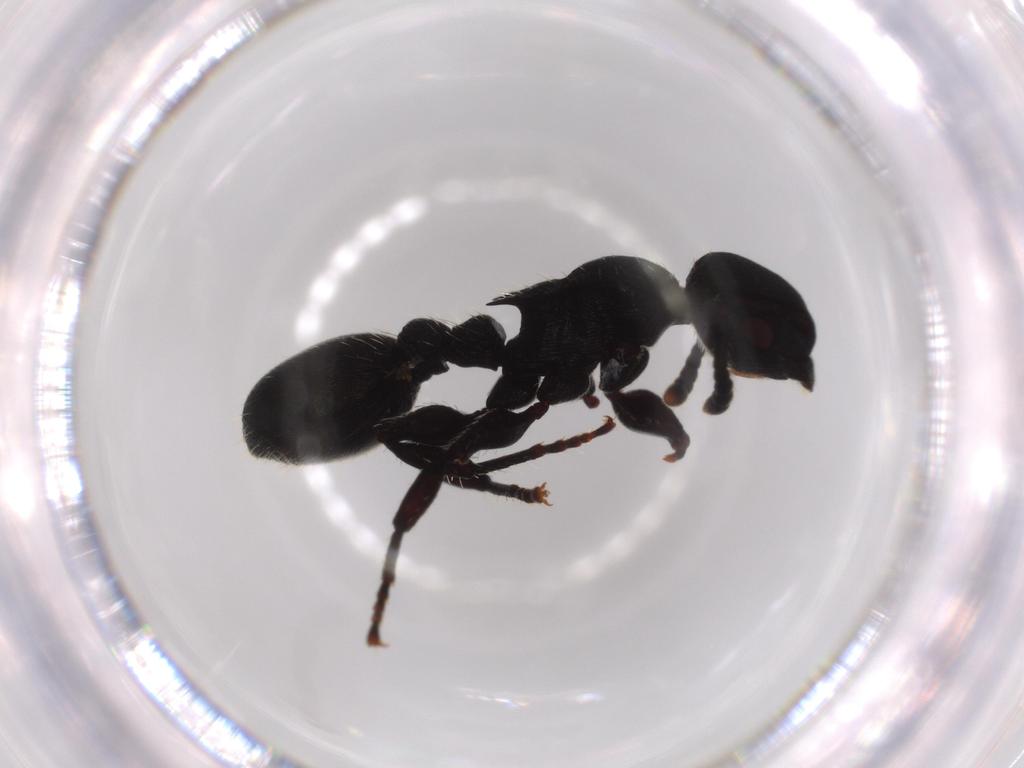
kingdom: Animalia
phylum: Arthropoda
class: Insecta
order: Hymenoptera
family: Formicidae
